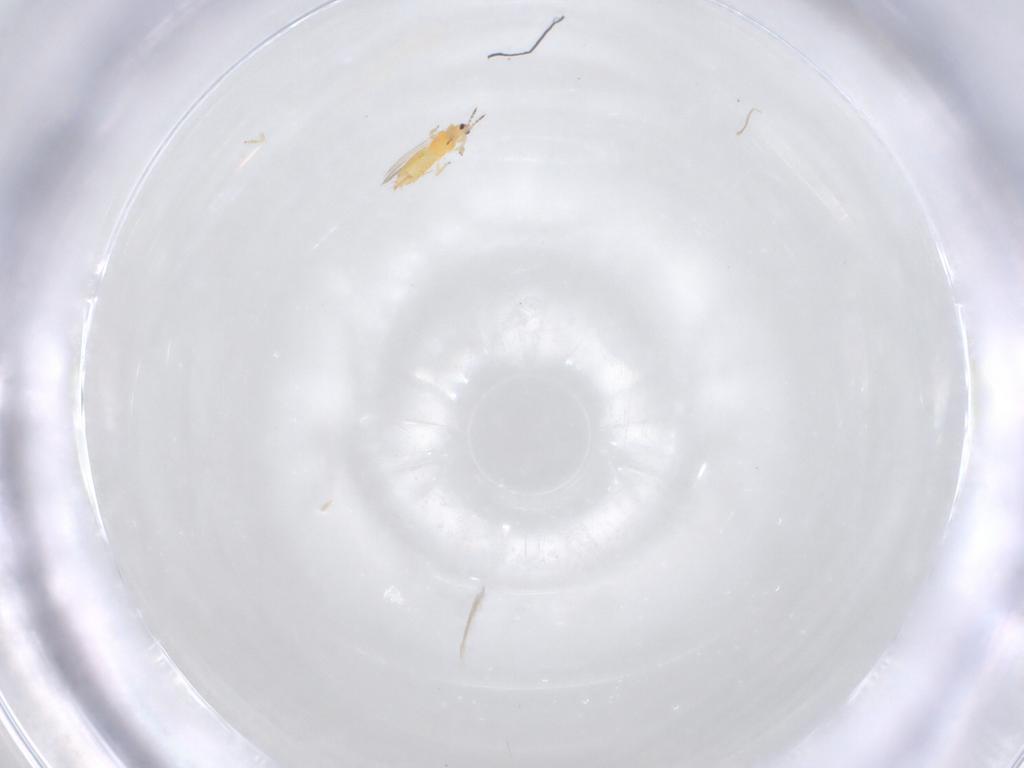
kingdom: Animalia
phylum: Arthropoda
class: Insecta
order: Thysanoptera
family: Thripidae
